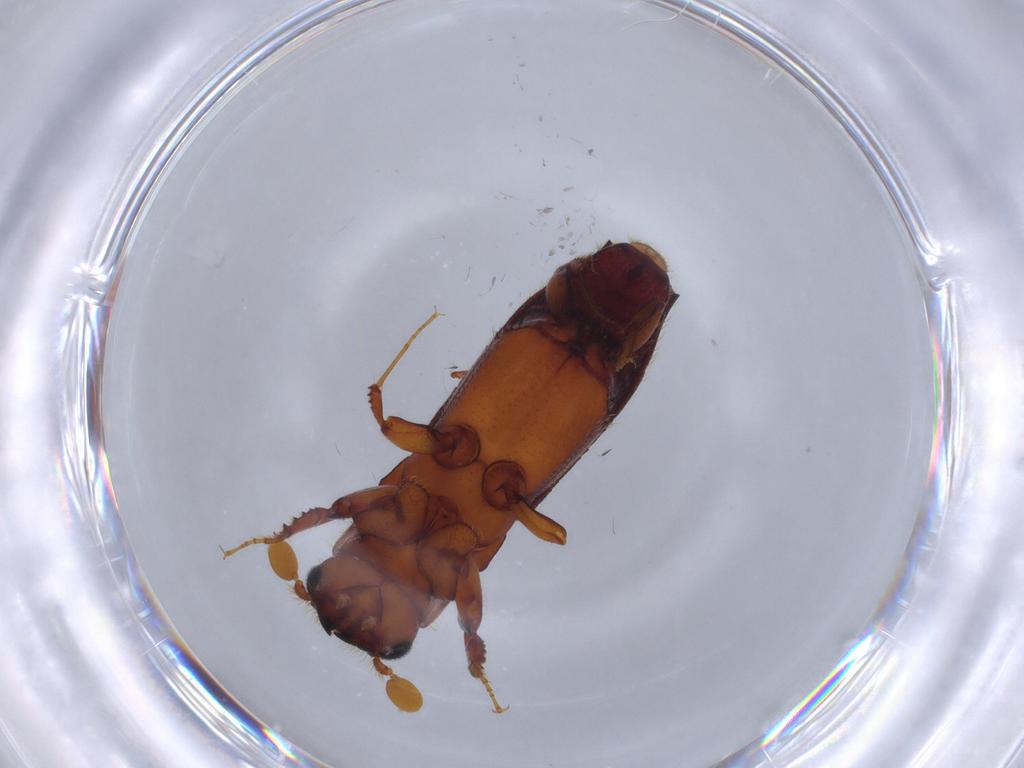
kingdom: Animalia
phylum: Arthropoda
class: Insecta
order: Coleoptera
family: Curculionidae
